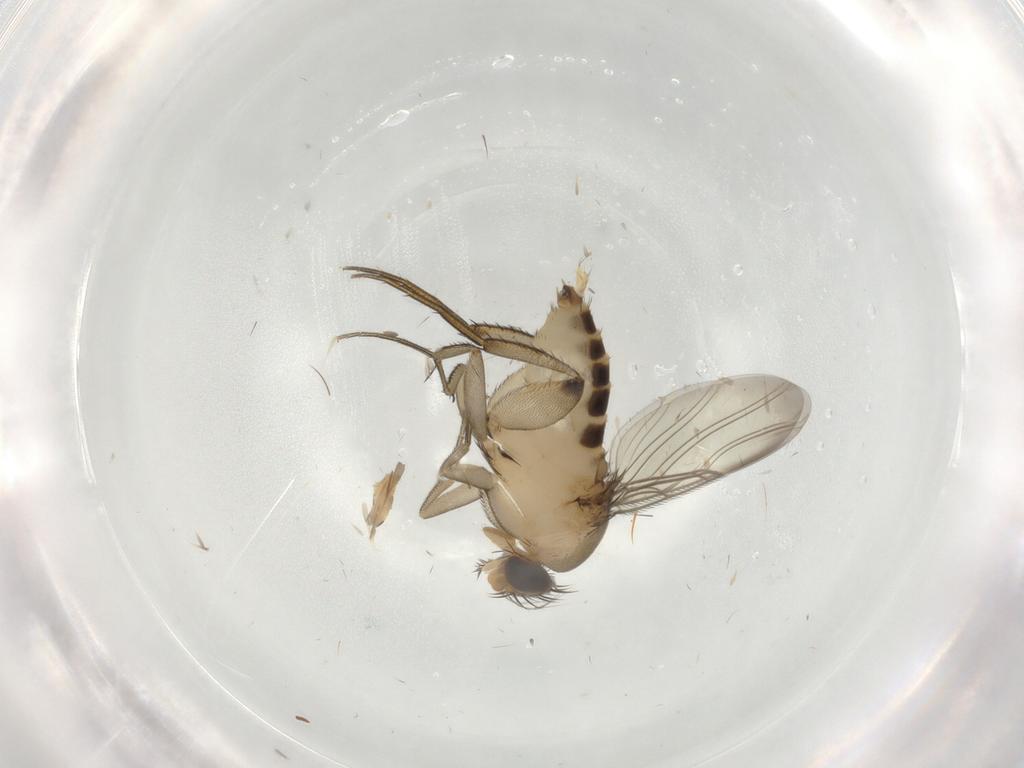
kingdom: Animalia
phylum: Arthropoda
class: Insecta
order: Diptera
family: Phoridae
